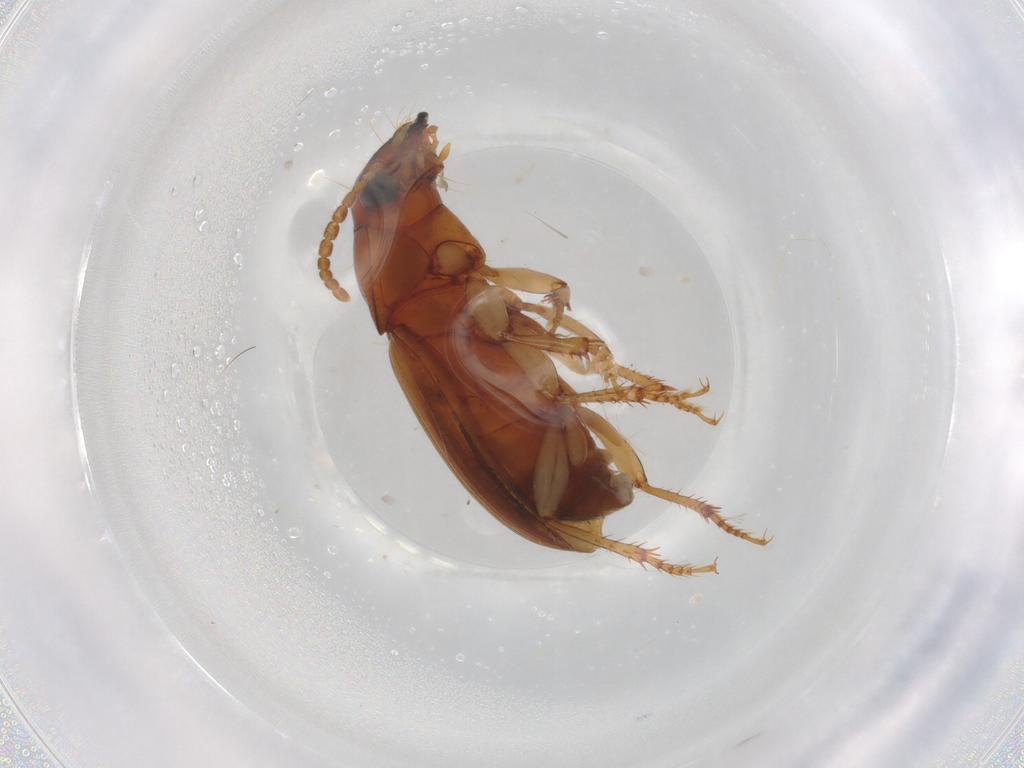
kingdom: Animalia
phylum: Arthropoda
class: Insecta
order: Coleoptera
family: Carabidae
